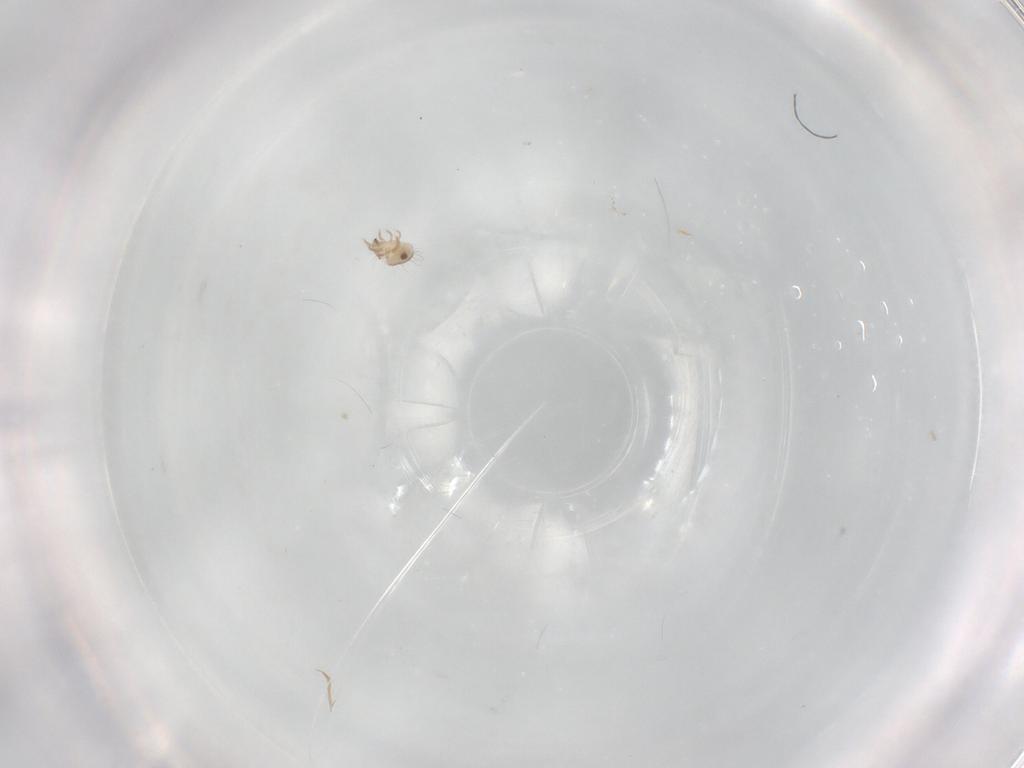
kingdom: Animalia
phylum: Arthropoda
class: Arachnida
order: Sarcoptiformes
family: Humerobatidae
